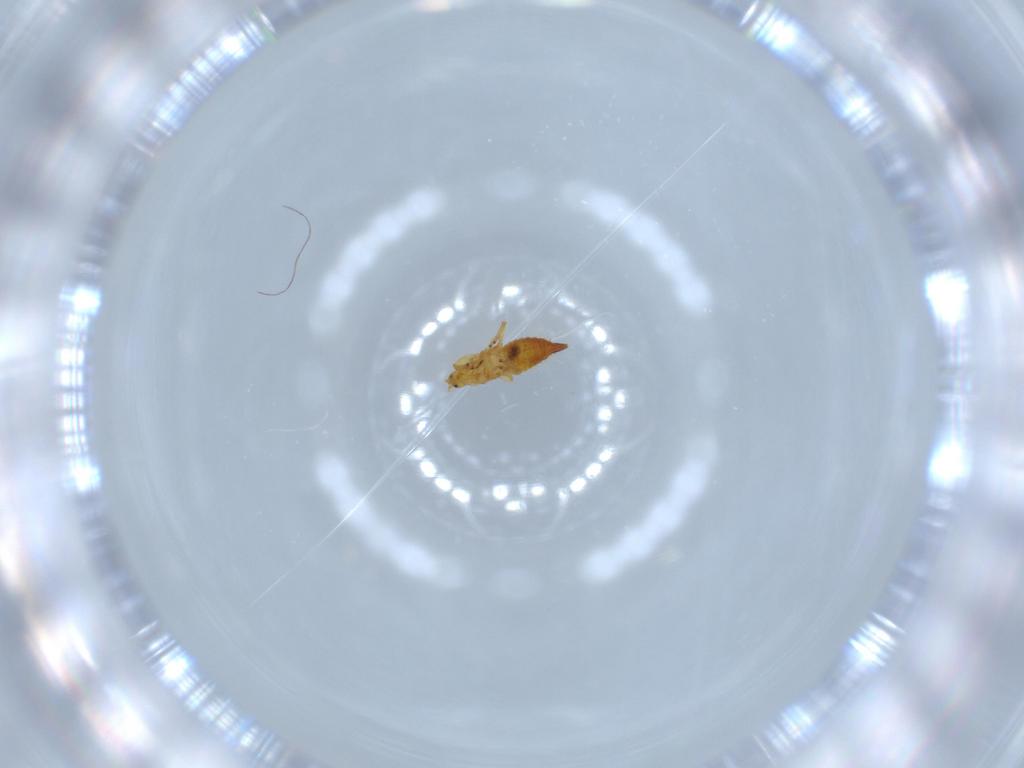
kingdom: Animalia
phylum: Arthropoda
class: Insecta
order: Thysanoptera
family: Phlaeothripidae
